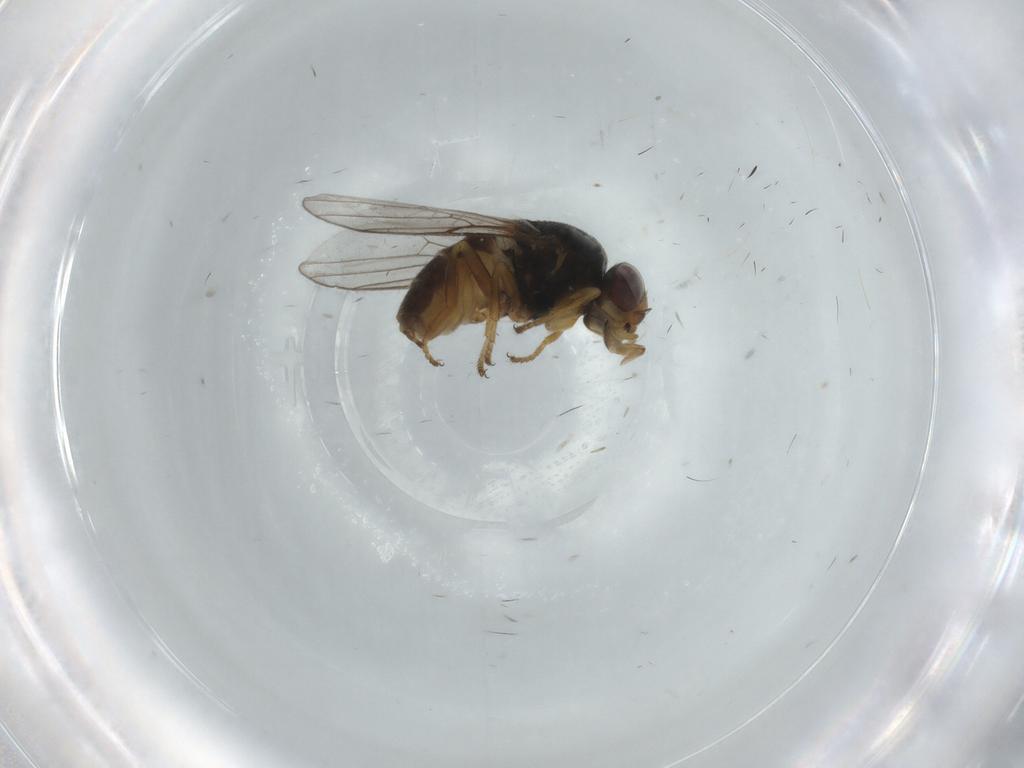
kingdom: Animalia
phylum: Arthropoda
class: Insecta
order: Diptera
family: Chloropidae
